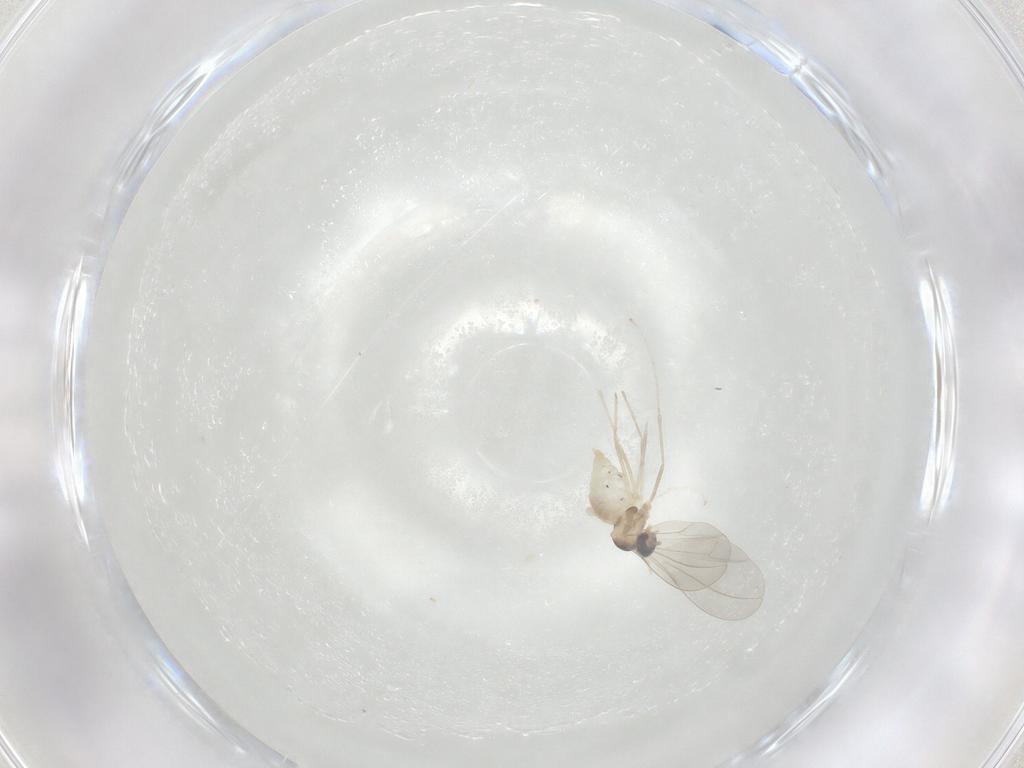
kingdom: Animalia
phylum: Arthropoda
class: Insecta
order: Diptera
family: Cecidomyiidae
